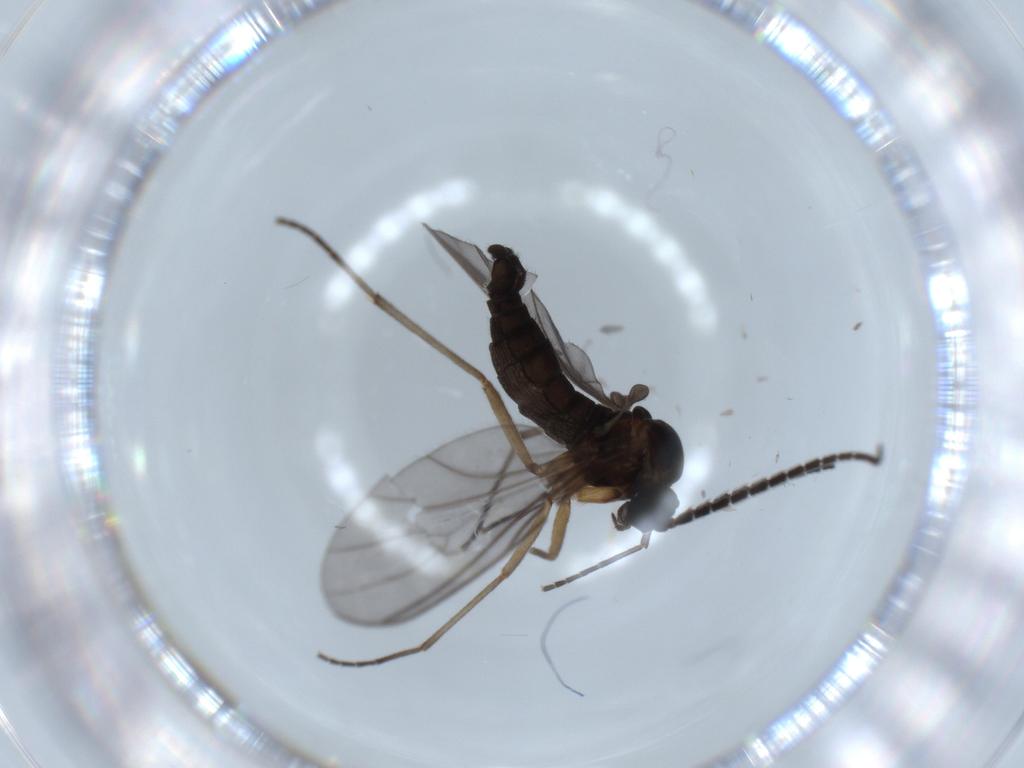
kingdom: Animalia
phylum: Arthropoda
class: Insecta
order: Diptera
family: Sciaridae
